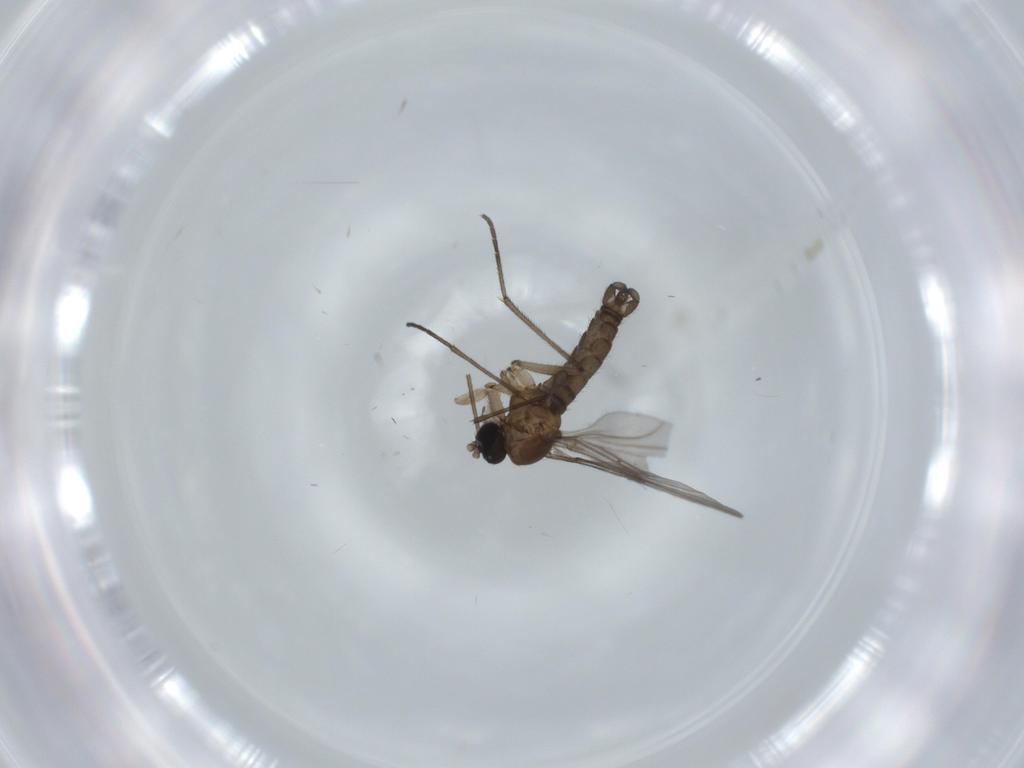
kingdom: Animalia
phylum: Arthropoda
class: Insecta
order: Diptera
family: Cecidomyiidae
